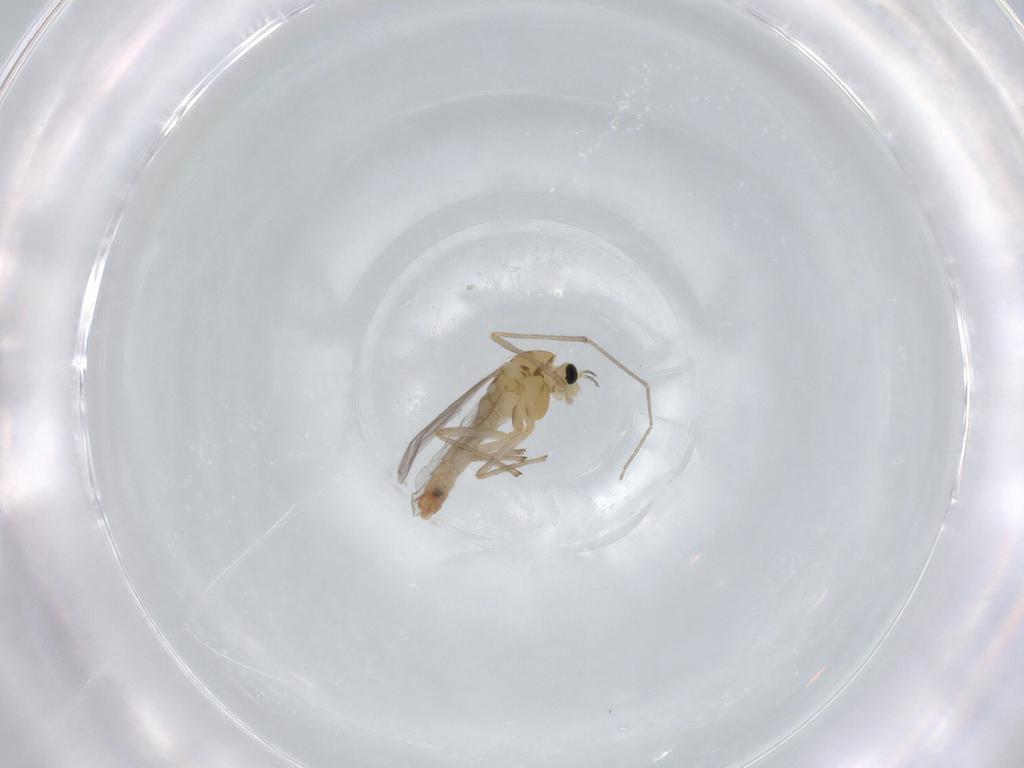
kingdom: Animalia
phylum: Arthropoda
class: Insecta
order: Diptera
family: Chironomidae
